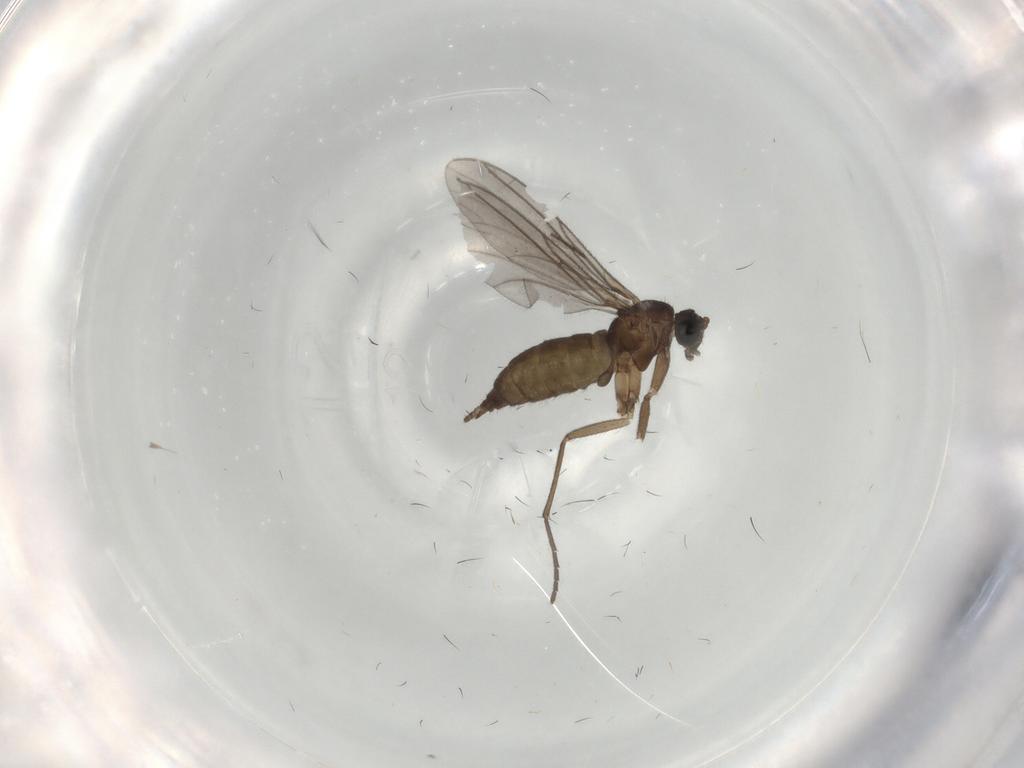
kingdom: Animalia
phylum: Arthropoda
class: Insecta
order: Diptera
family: Sciaridae
